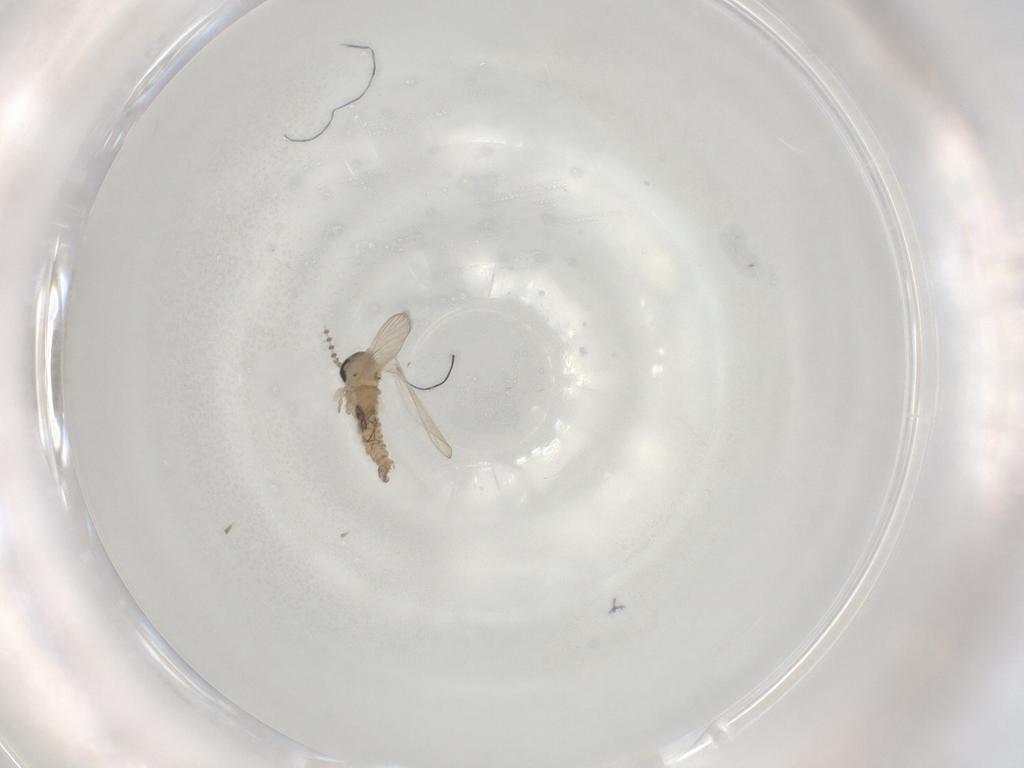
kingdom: Animalia
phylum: Arthropoda
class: Insecta
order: Diptera
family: Psychodidae
